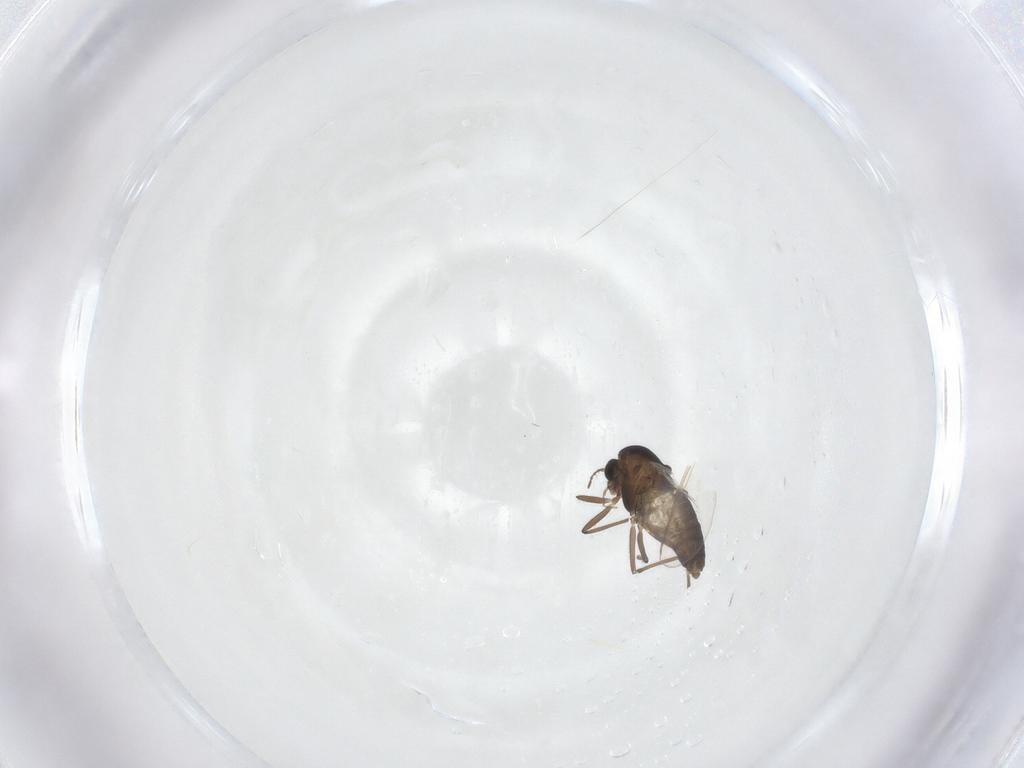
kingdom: Animalia
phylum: Arthropoda
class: Insecta
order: Diptera
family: Chironomidae
